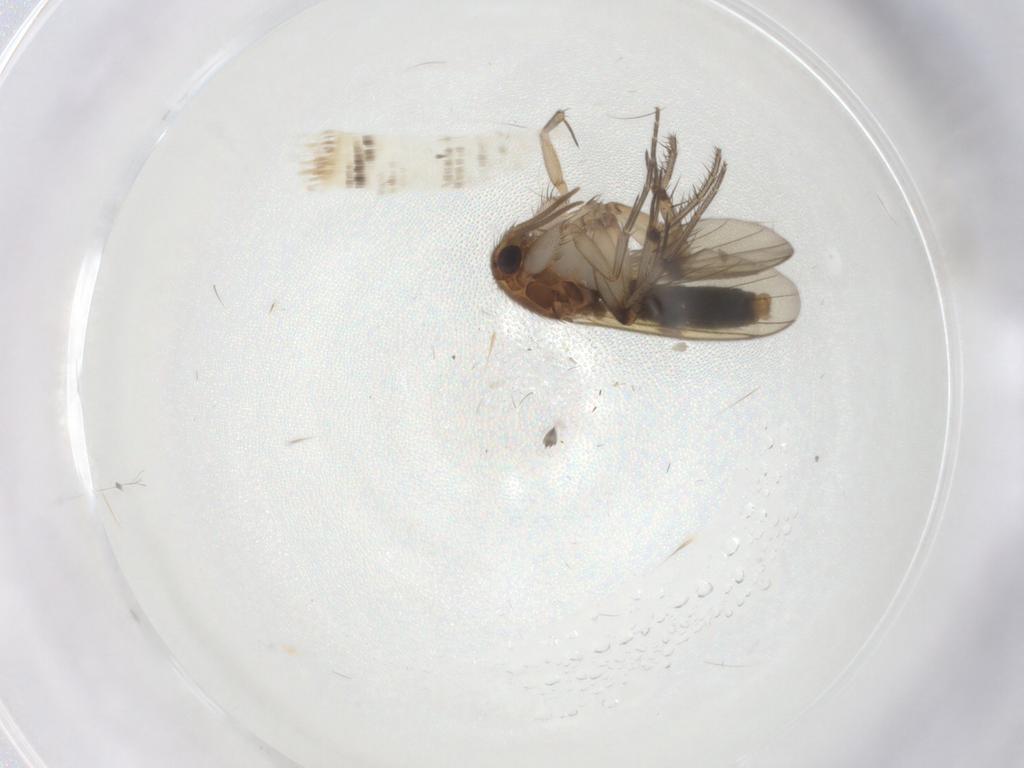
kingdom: Animalia
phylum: Arthropoda
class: Insecta
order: Diptera
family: Mycetophilidae
